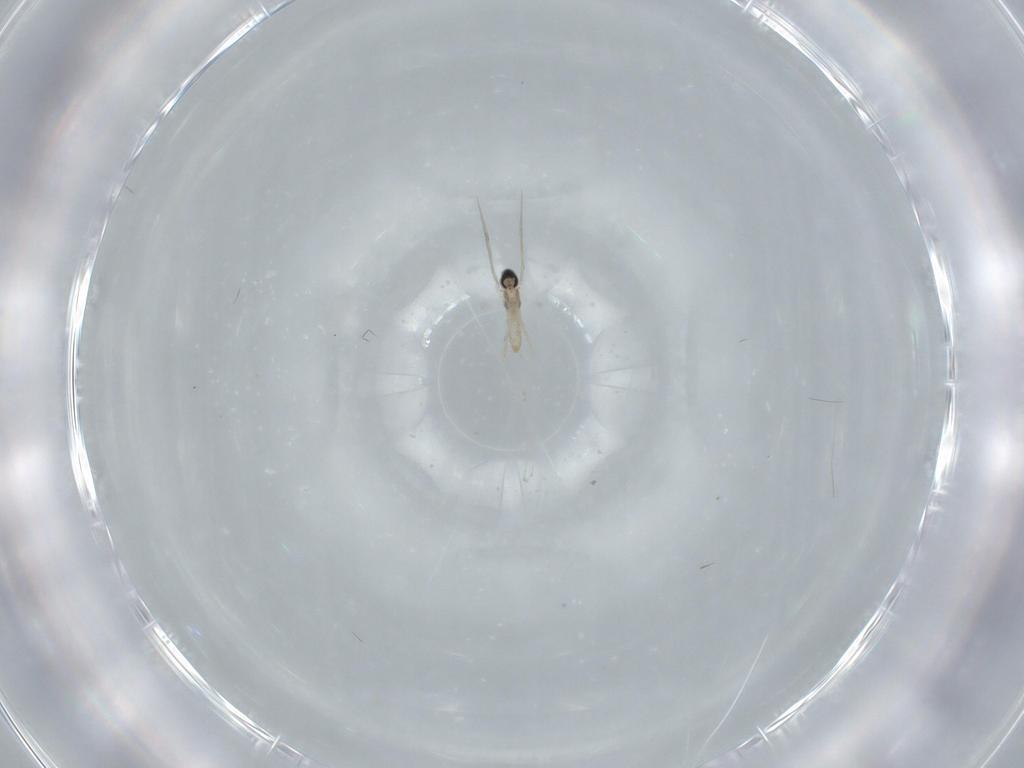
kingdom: Animalia
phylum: Arthropoda
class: Insecta
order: Diptera
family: Cecidomyiidae
